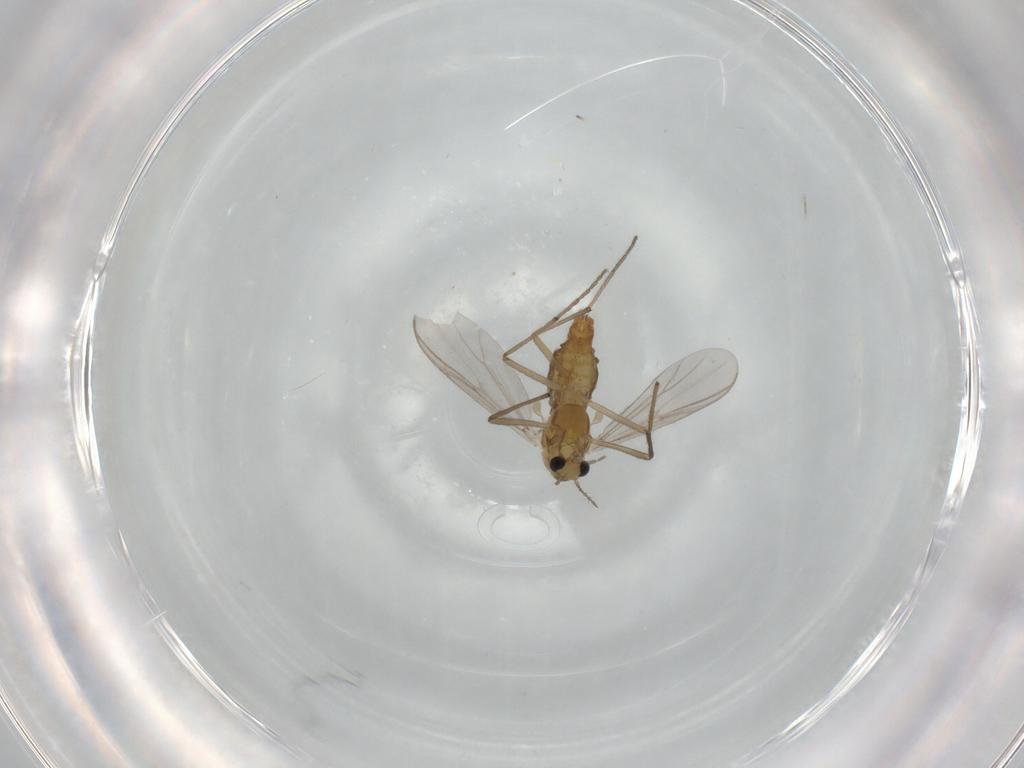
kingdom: Animalia
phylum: Arthropoda
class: Insecta
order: Diptera
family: Chironomidae
